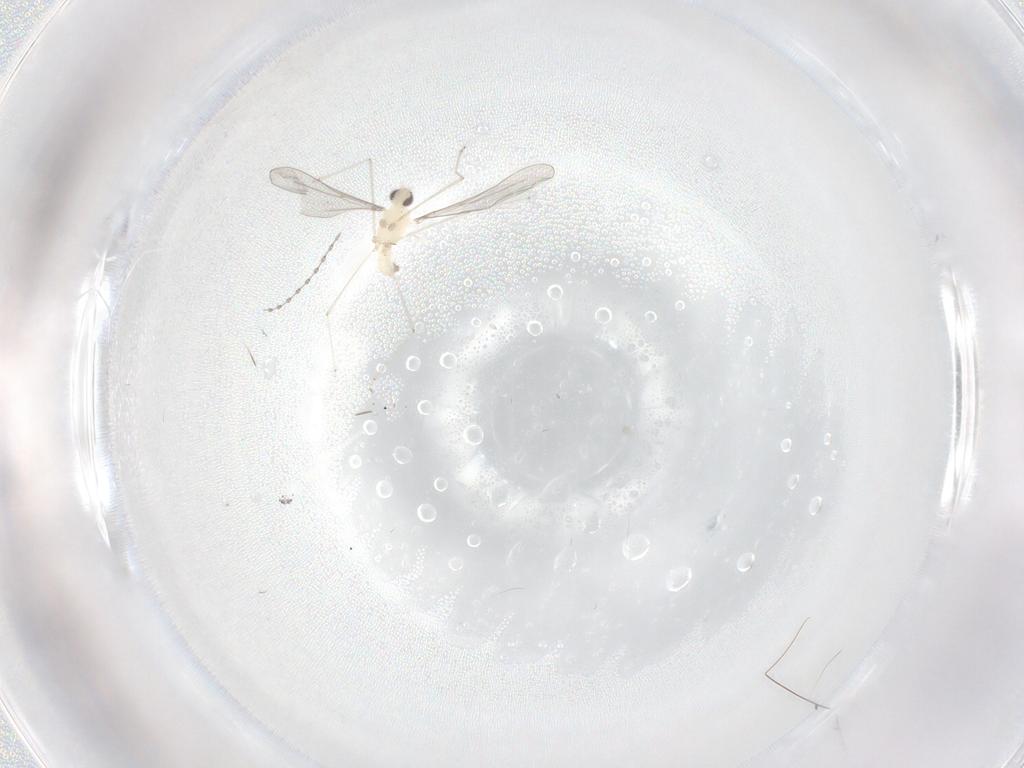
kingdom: Animalia
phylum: Arthropoda
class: Insecta
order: Diptera
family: Cecidomyiidae
